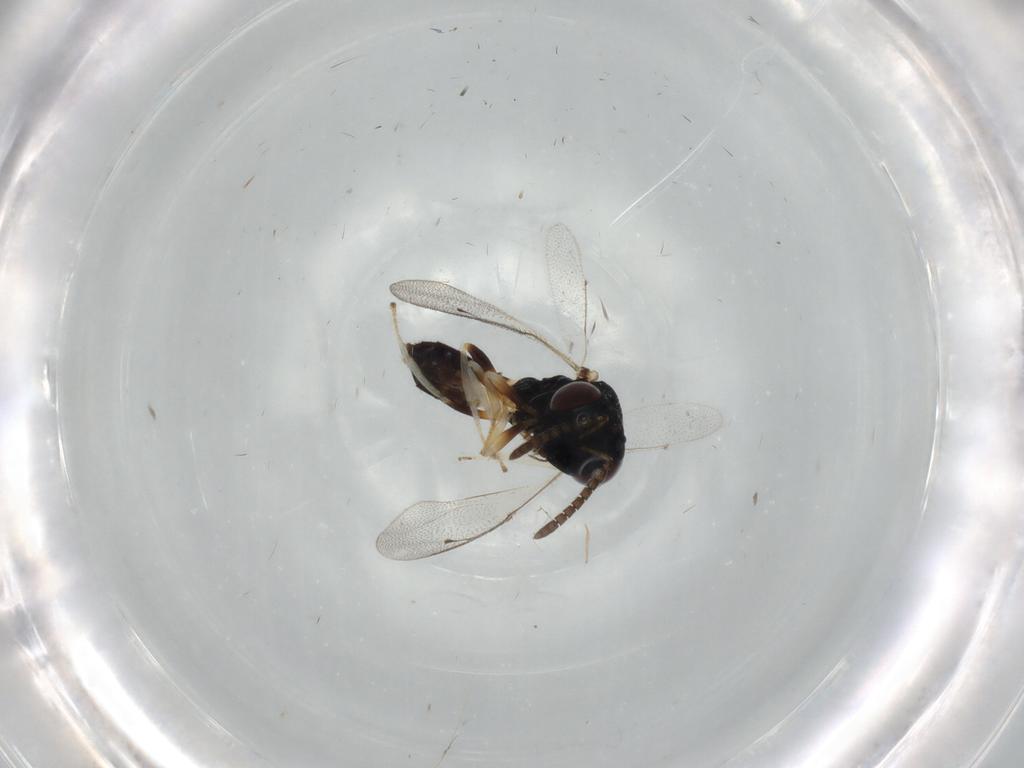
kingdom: Animalia
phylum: Arthropoda
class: Insecta
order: Hymenoptera
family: Pteromalidae
